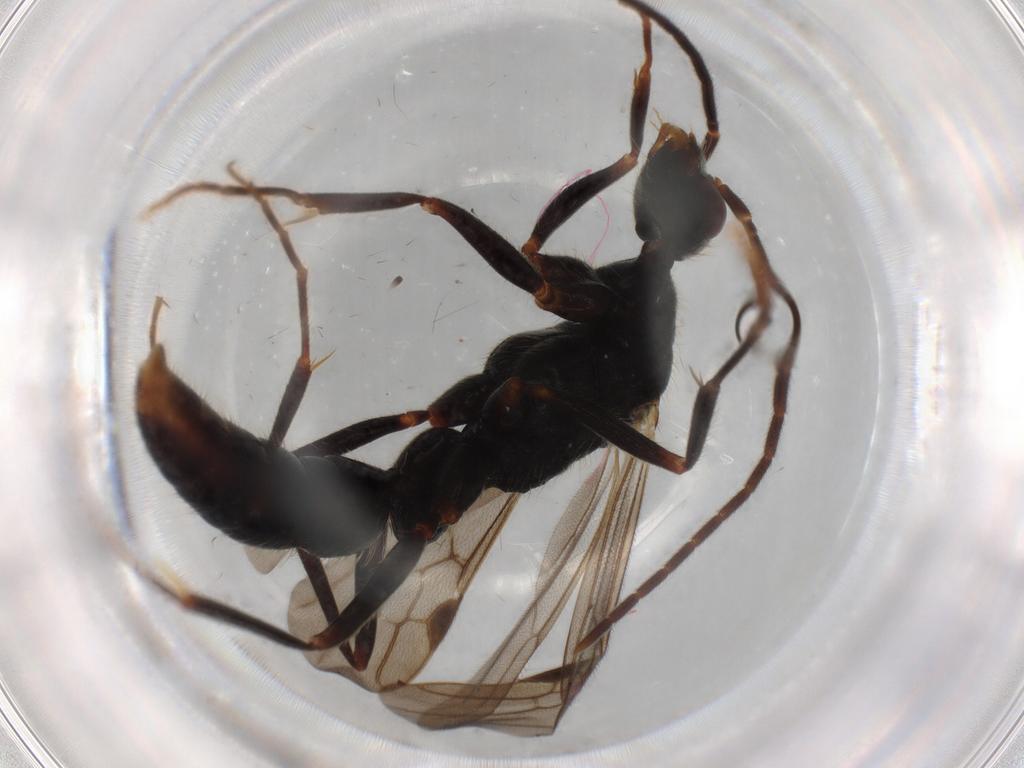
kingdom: Animalia
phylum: Arthropoda
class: Insecta
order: Hymenoptera
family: Formicidae
